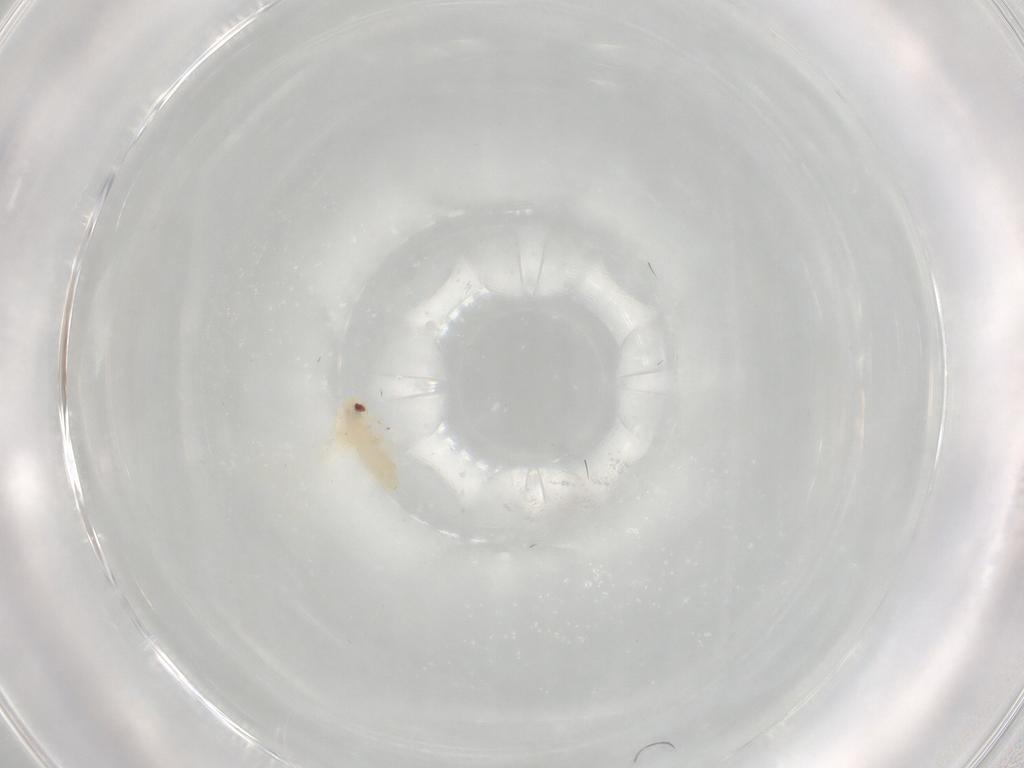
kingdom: Animalia
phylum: Arthropoda
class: Insecta
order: Hemiptera
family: Aleyrodidae
